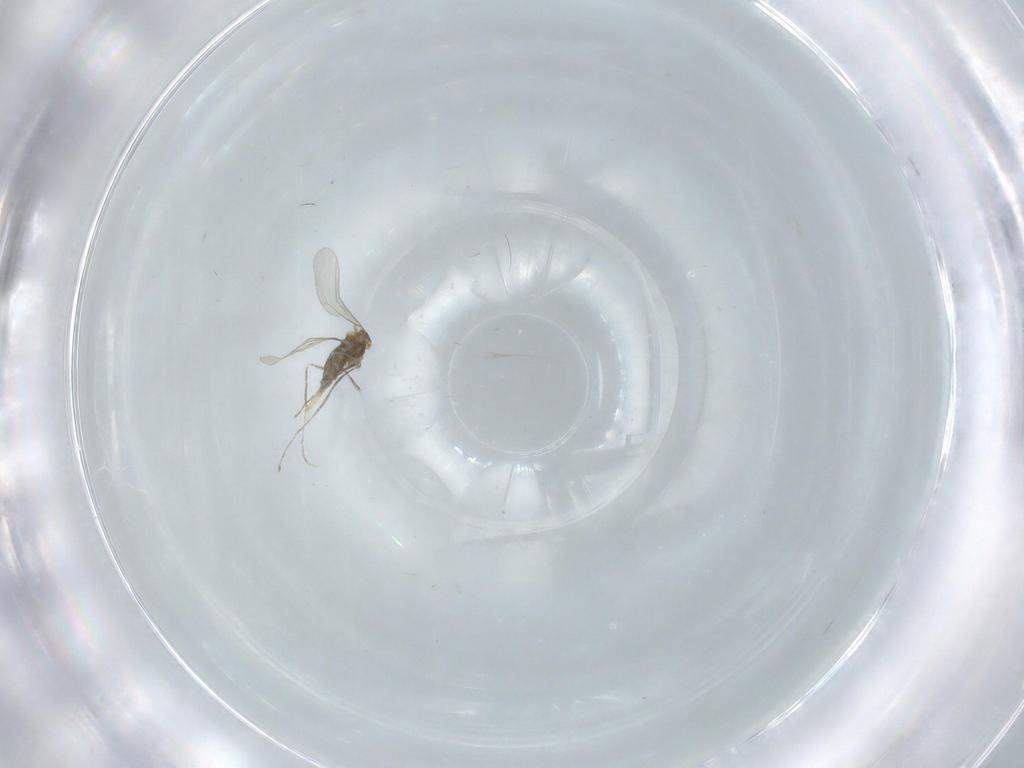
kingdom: Animalia
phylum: Arthropoda
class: Insecta
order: Diptera
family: Cecidomyiidae
